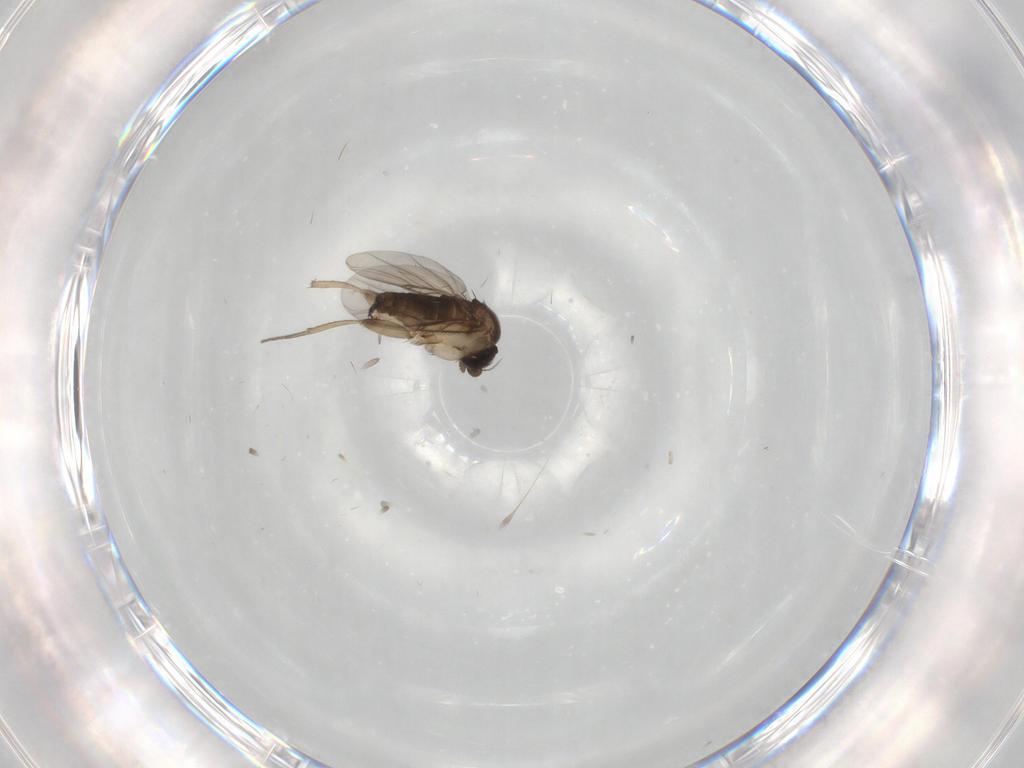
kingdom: Animalia
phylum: Arthropoda
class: Insecta
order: Diptera
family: Phoridae
